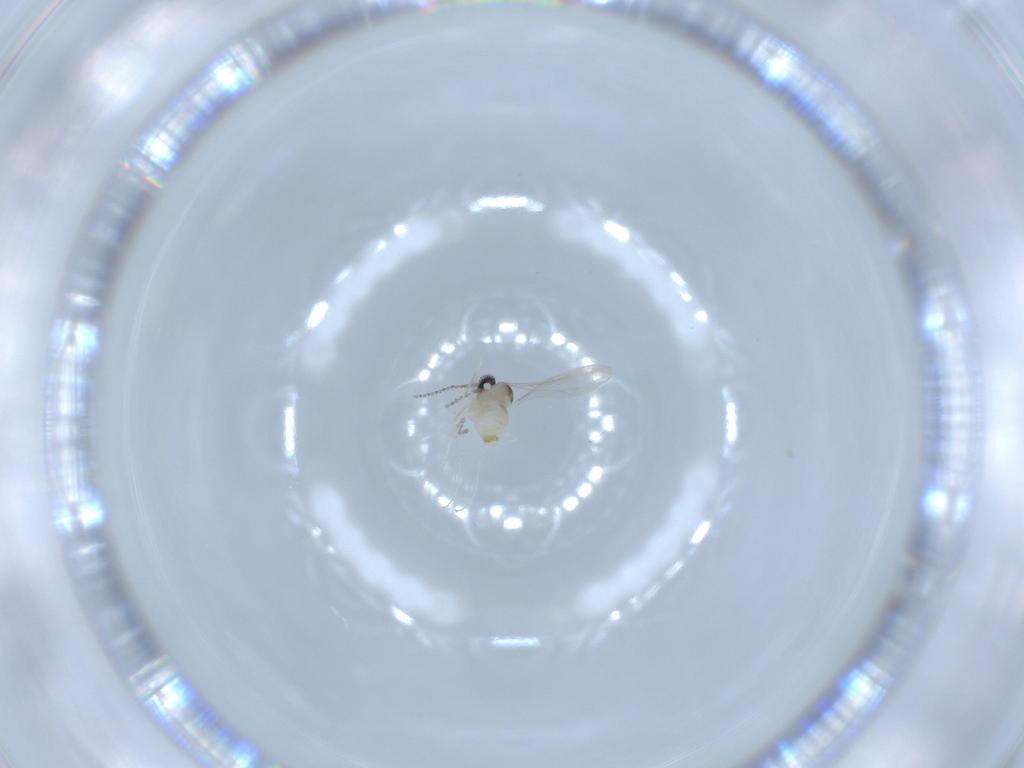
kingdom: Animalia
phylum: Arthropoda
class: Insecta
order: Diptera
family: Cecidomyiidae
